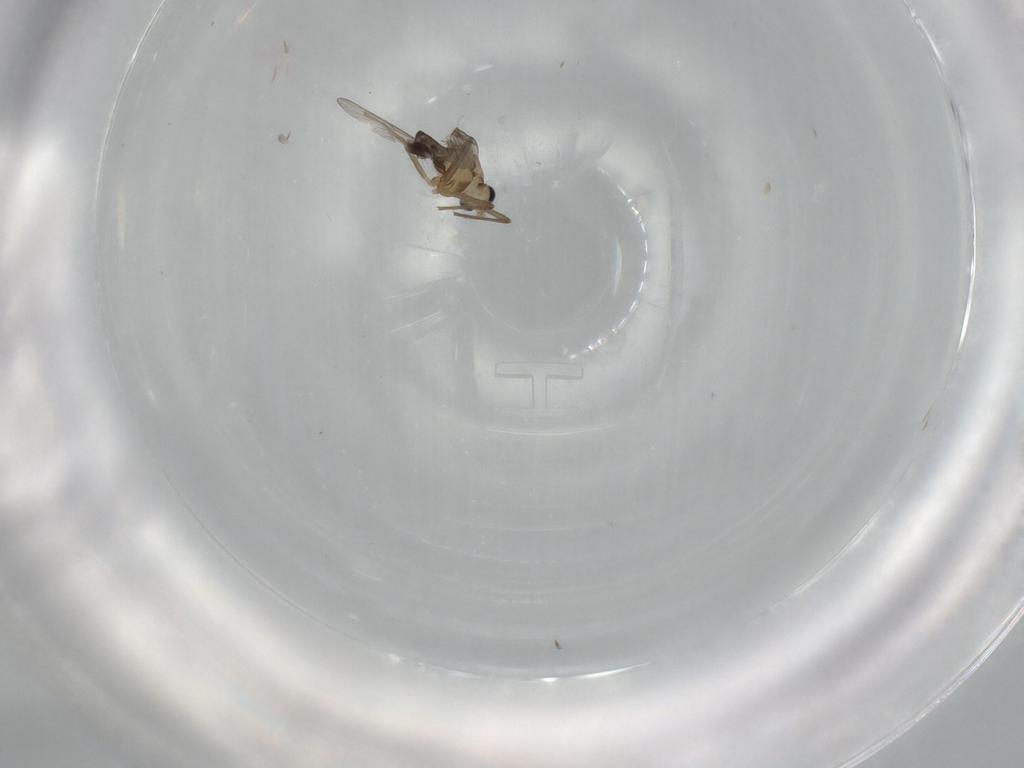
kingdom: Animalia
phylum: Arthropoda
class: Insecta
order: Diptera
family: Chironomidae
